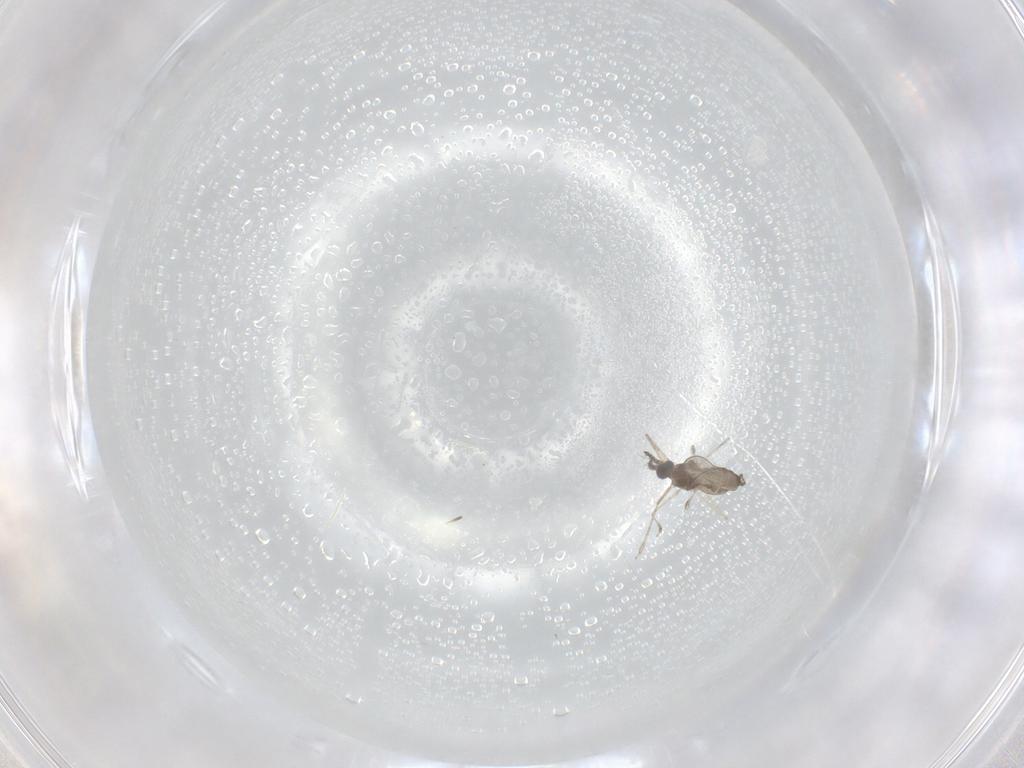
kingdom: Animalia
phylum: Arthropoda
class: Insecta
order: Diptera
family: Cecidomyiidae
